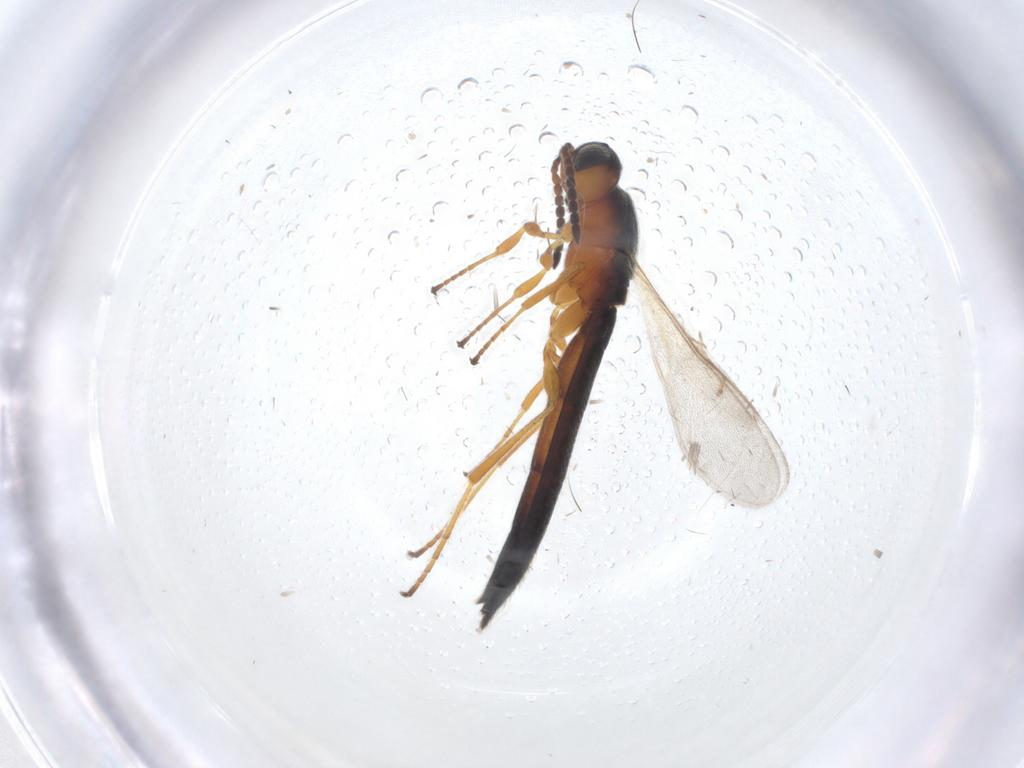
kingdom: Animalia
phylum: Arthropoda
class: Insecta
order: Hymenoptera
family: Scelionidae
